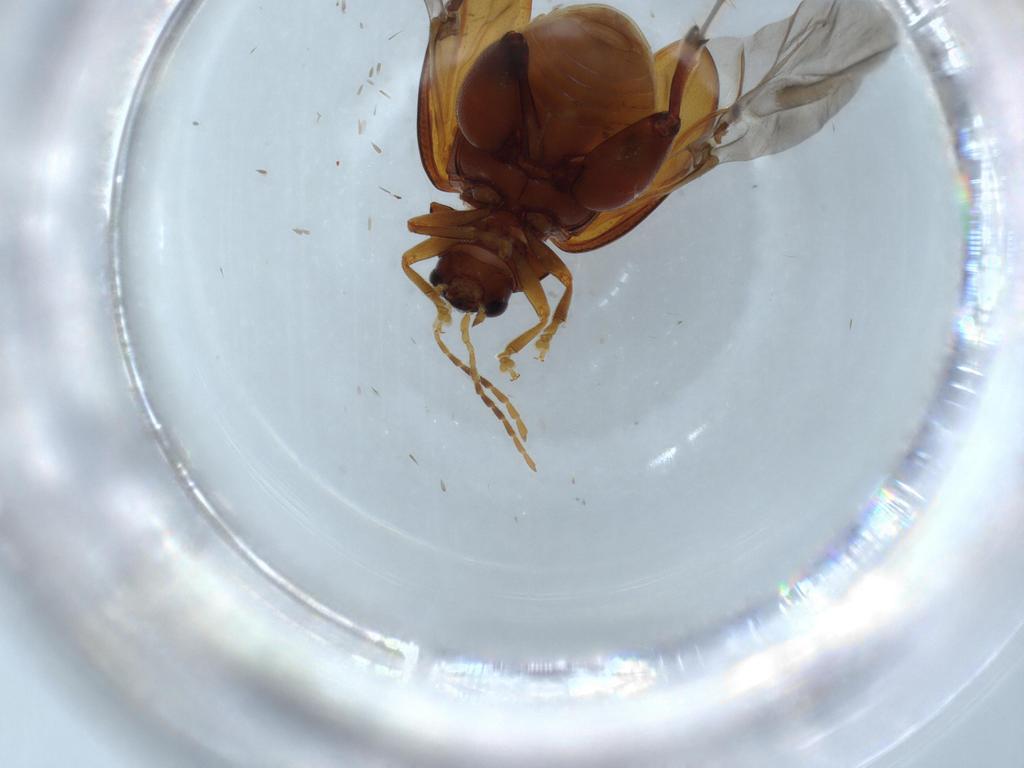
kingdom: Animalia
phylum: Arthropoda
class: Insecta
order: Coleoptera
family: Chrysomelidae
